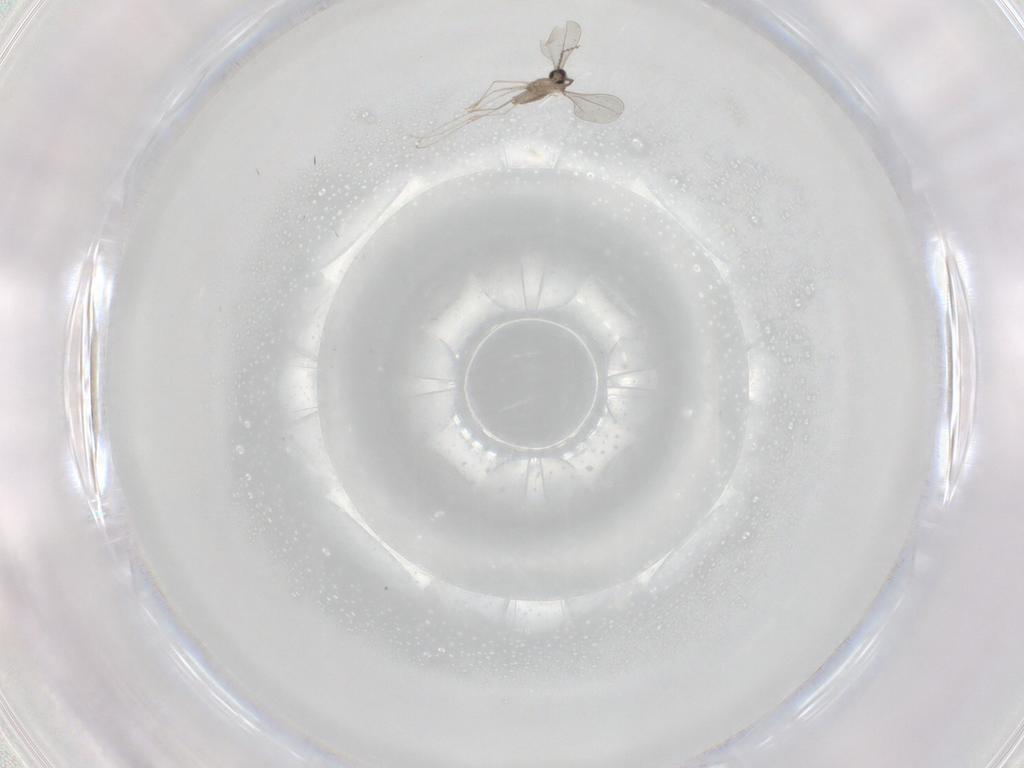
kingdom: Animalia
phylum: Arthropoda
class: Insecta
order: Diptera
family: Cecidomyiidae
